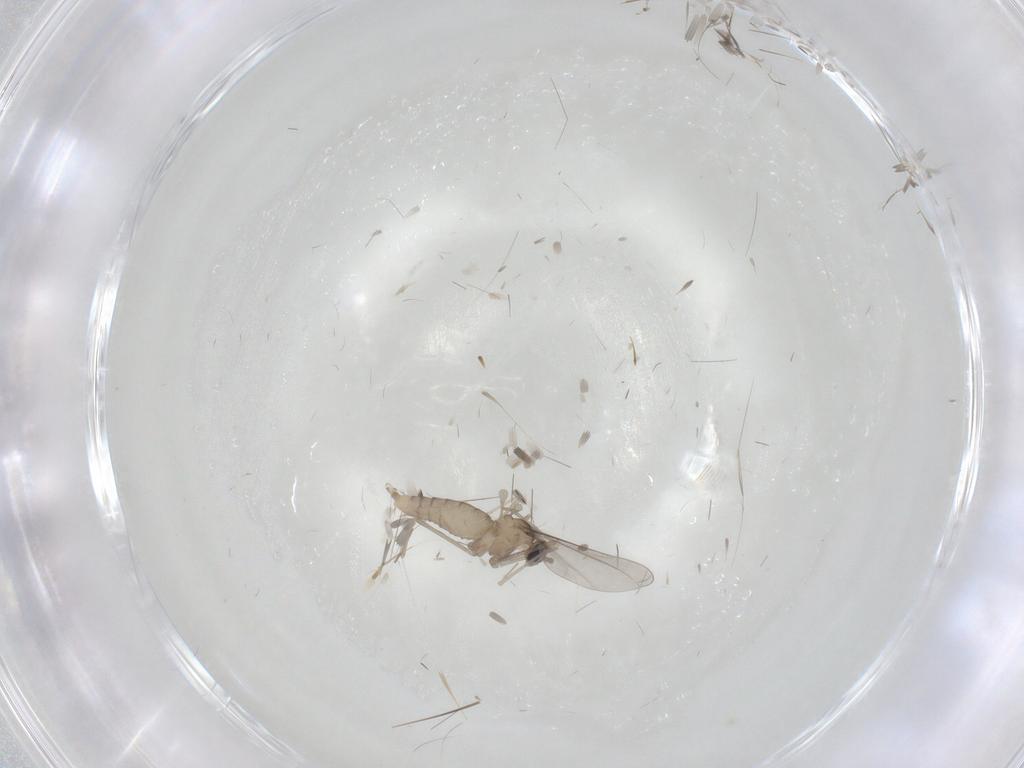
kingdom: Animalia
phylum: Arthropoda
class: Insecta
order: Diptera
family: Cecidomyiidae
